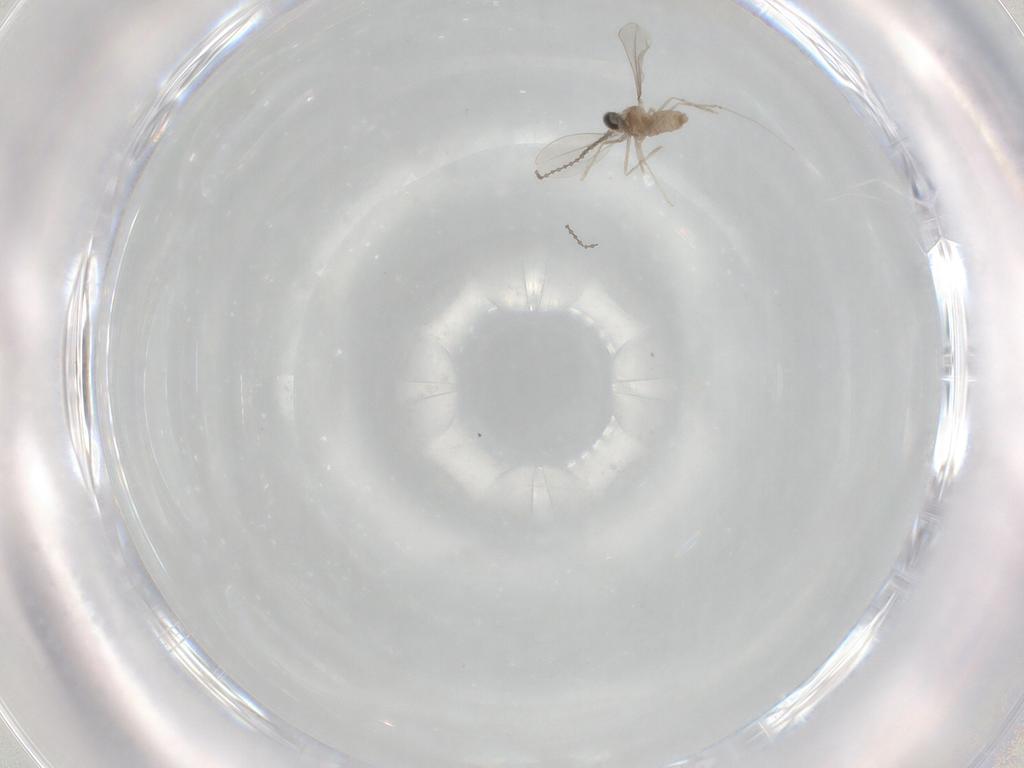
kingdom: Animalia
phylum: Arthropoda
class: Insecta
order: Diptera
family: Cecidomyiidae
